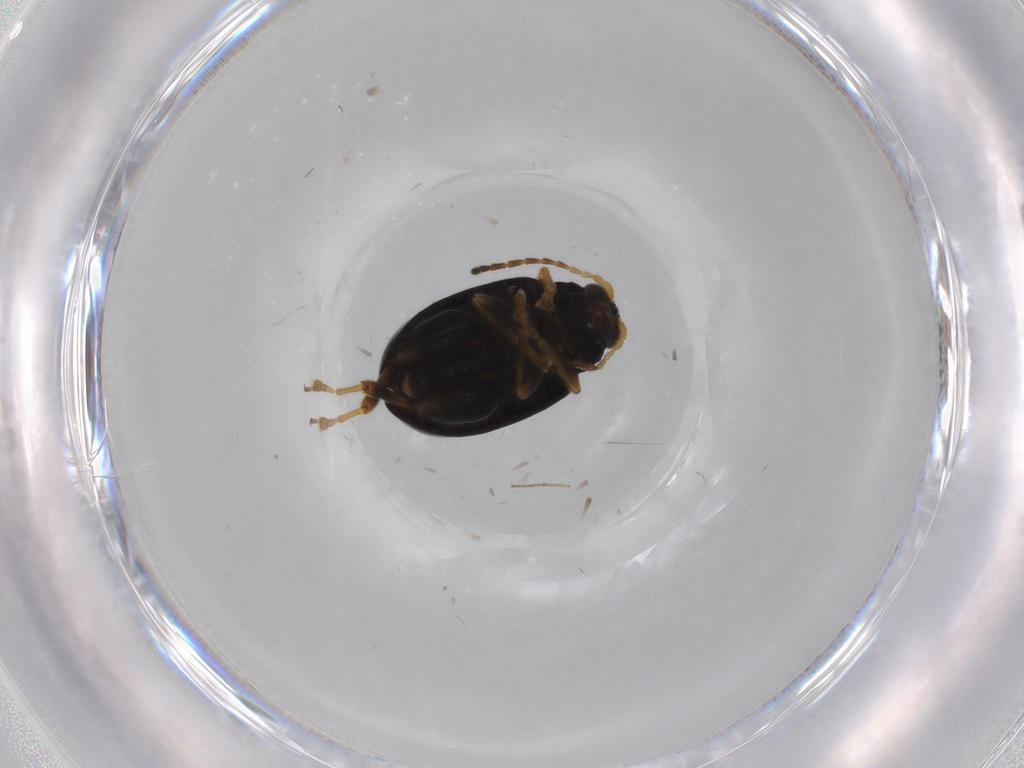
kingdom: Animalia
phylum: Arthropoda
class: Insecta
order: Coleoptera
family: Chrysomelidae
